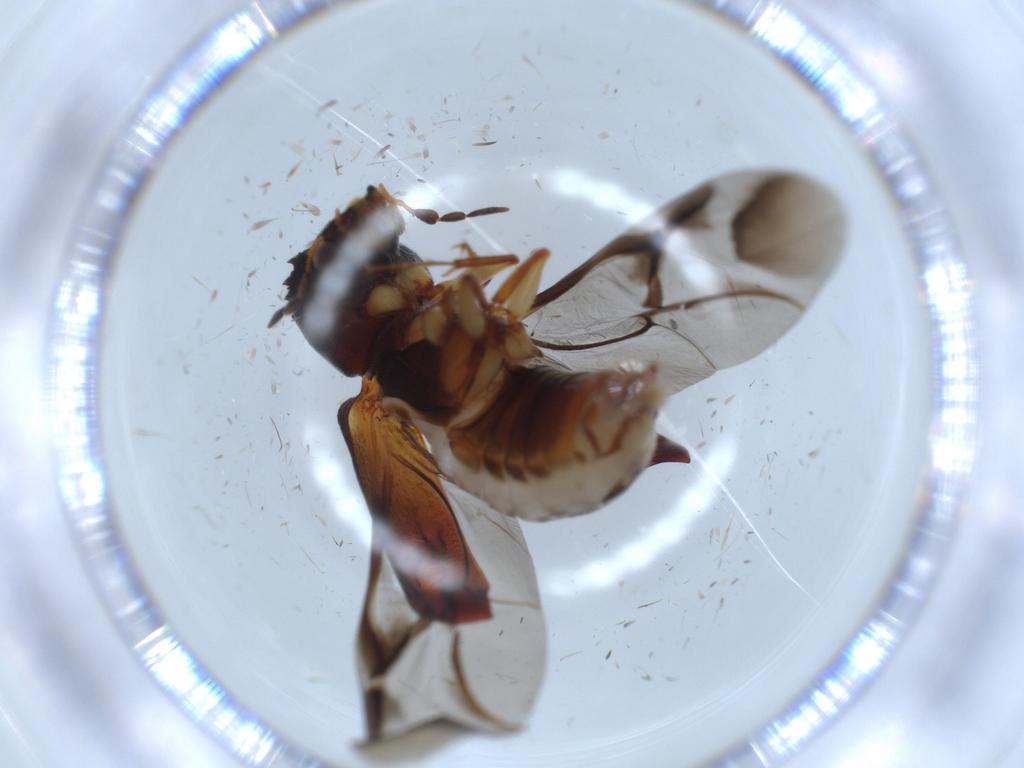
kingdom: Animalia
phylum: Arthropoda
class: Insecta
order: Coleoptera
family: Bostrichidae
